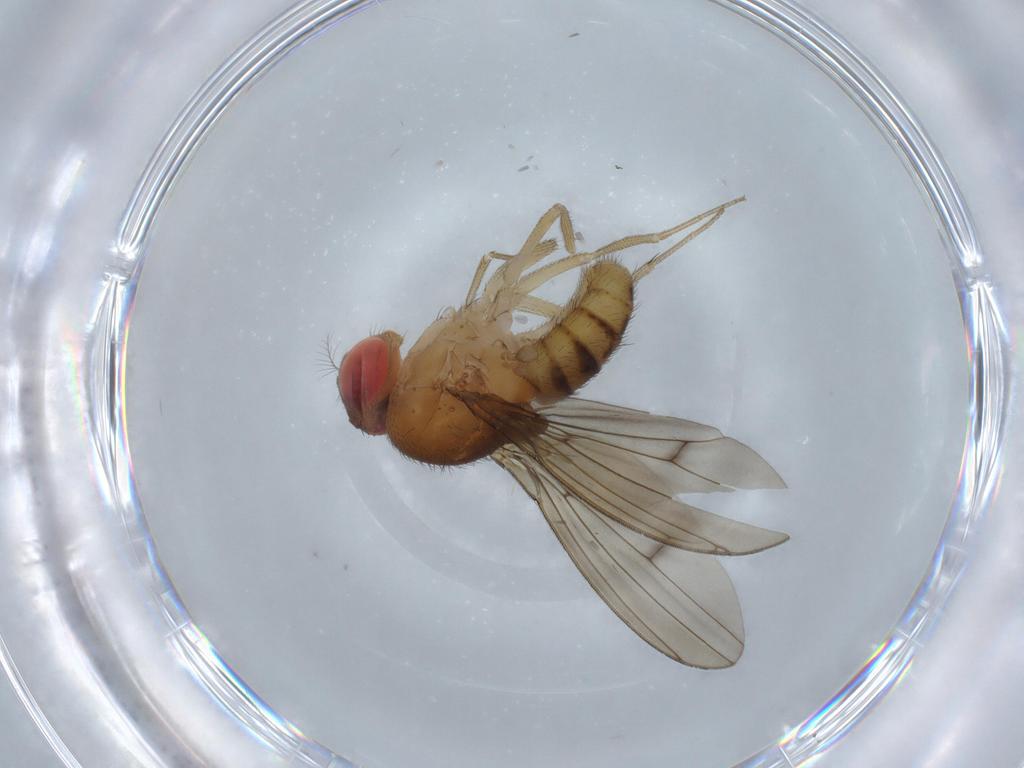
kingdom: Animalia
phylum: Arthropoda
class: Insecta
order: Diptera
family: Drosophilidae
